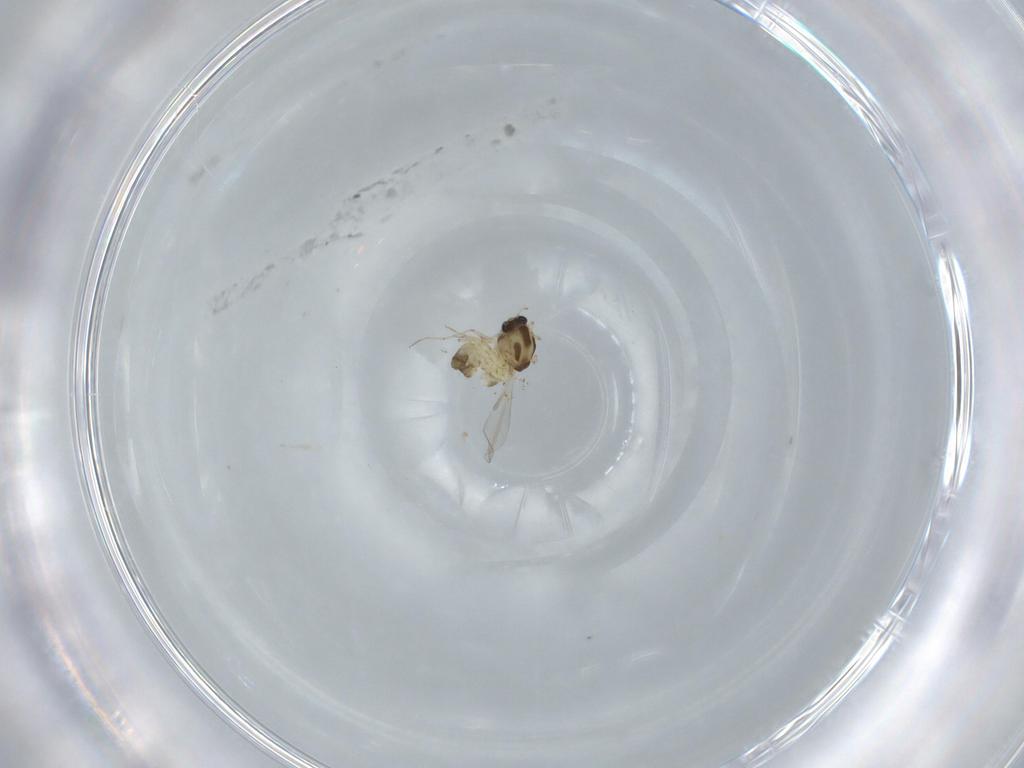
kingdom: Animalia
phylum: Arthropoda
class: Insecta
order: Diptera
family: Chironomidae
